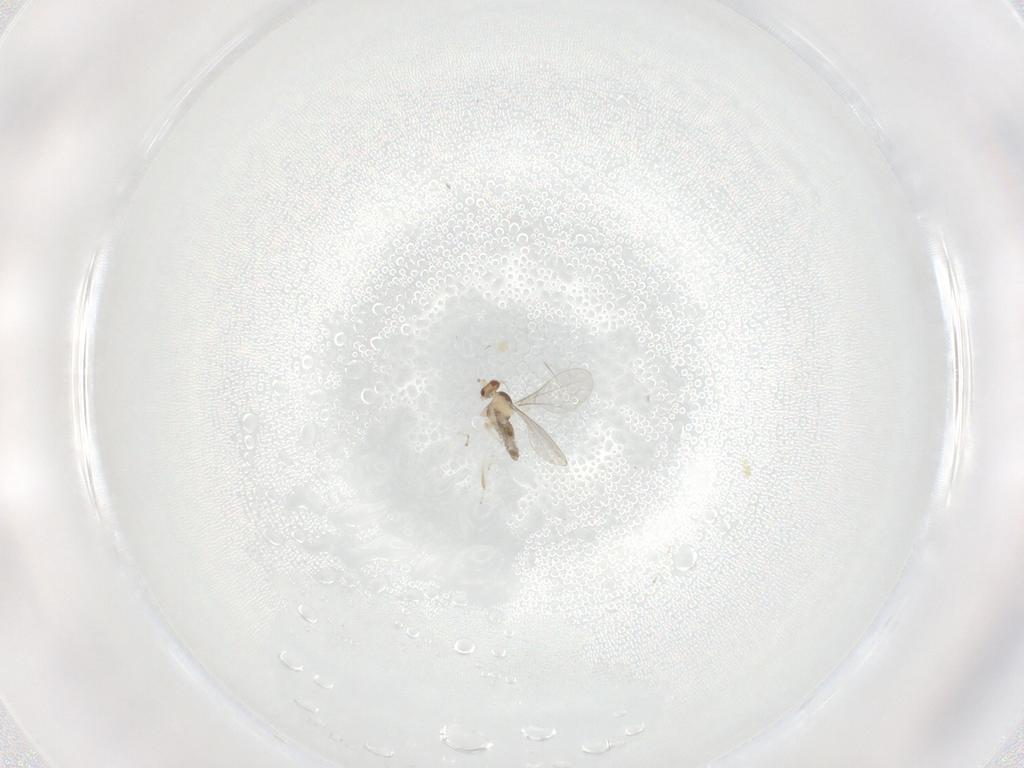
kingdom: Animalia
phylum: Arthropoda
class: Insecta
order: Diptera
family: Cecidomyiidae
